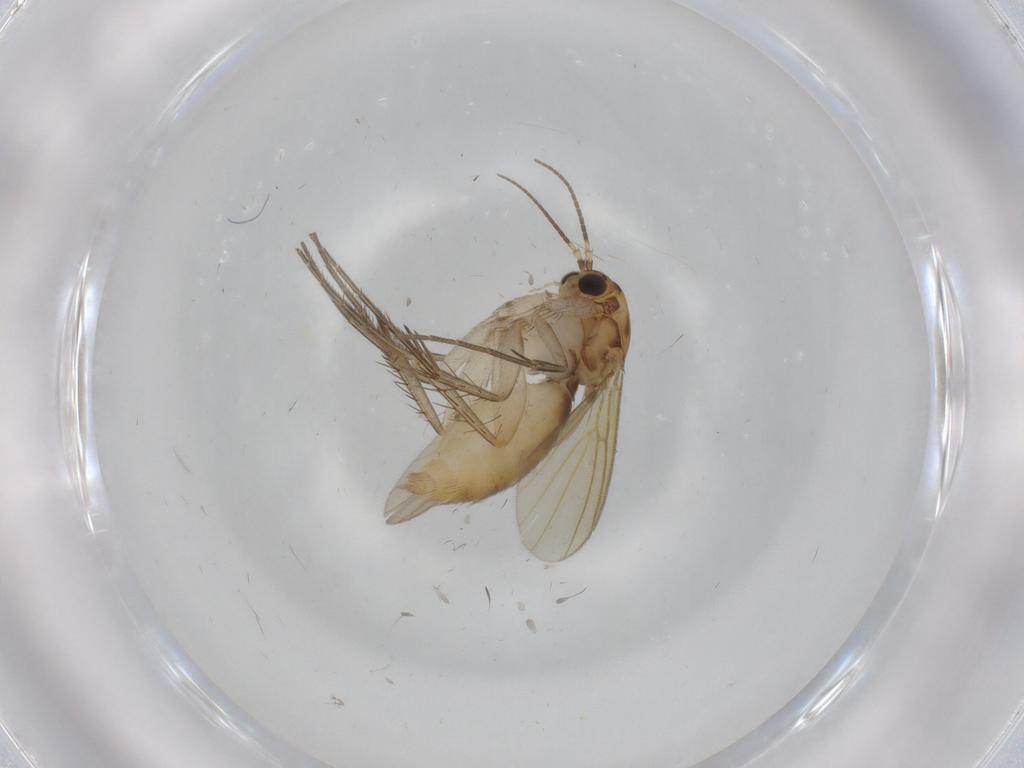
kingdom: Animalia
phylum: Arthropoda
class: Insecta
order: Diptera
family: Mycetophilidae
